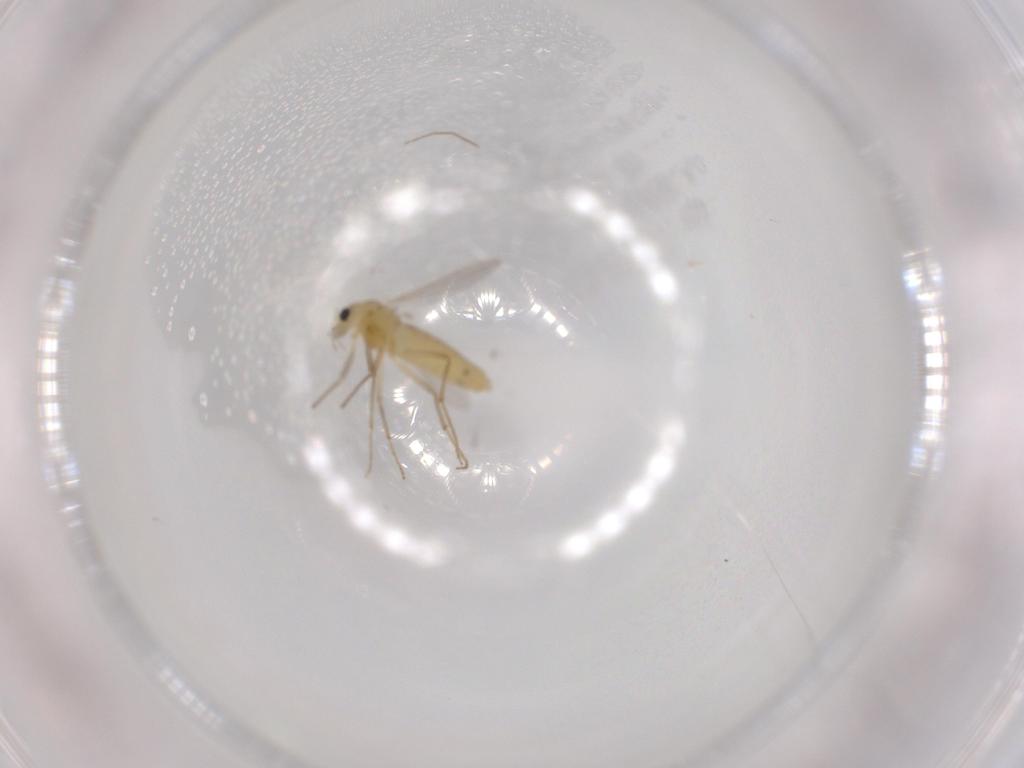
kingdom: Animalia
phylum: Arthropoda
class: Insecta
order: Diptera
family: Chironomidae
